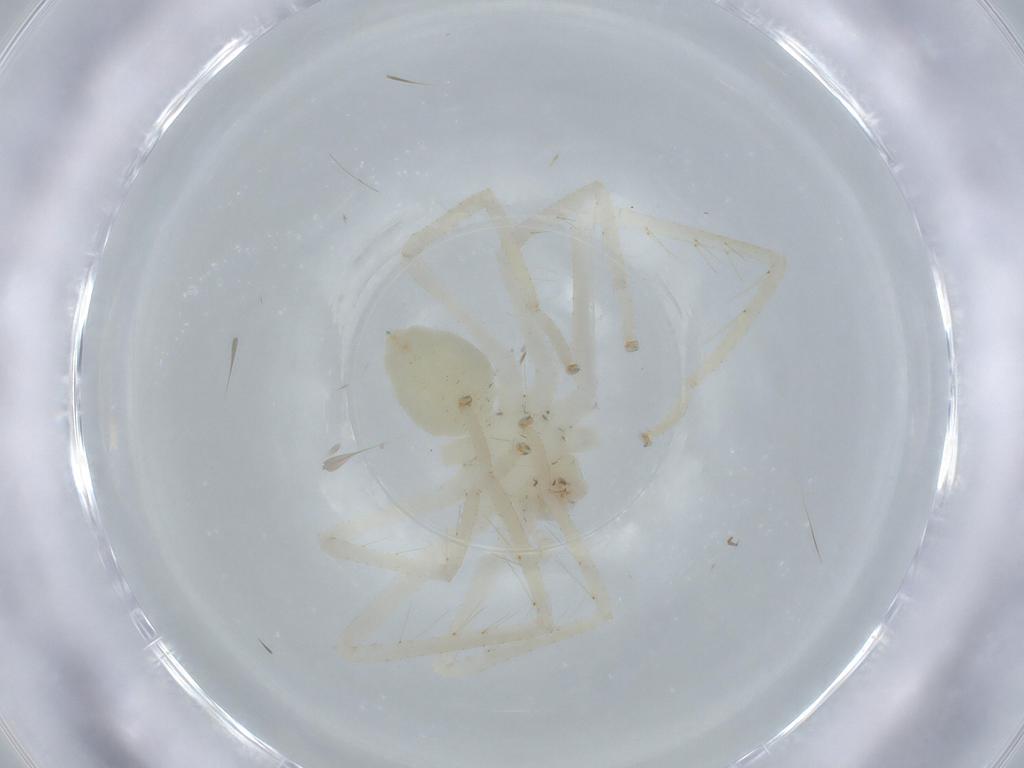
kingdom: Animalia
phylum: Arthropoda
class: Arachnida
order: Araneae
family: Sparassidae
